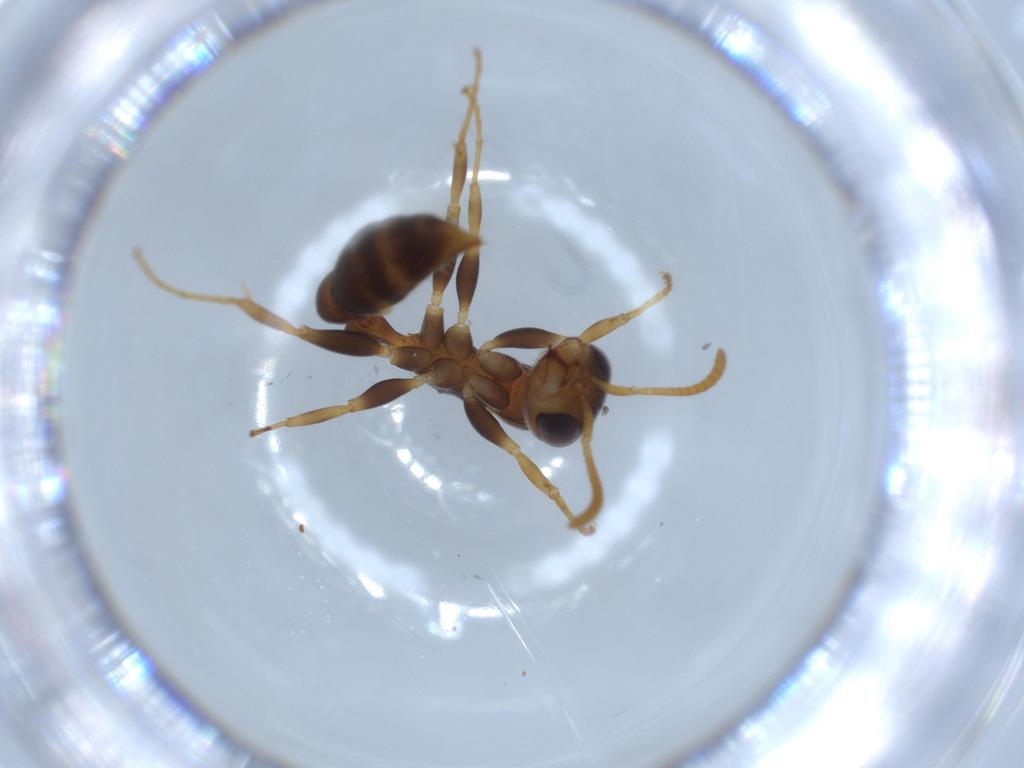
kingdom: Animalia
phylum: Arthropoda
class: Insecta
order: Hymenoptera
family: Formicidae
